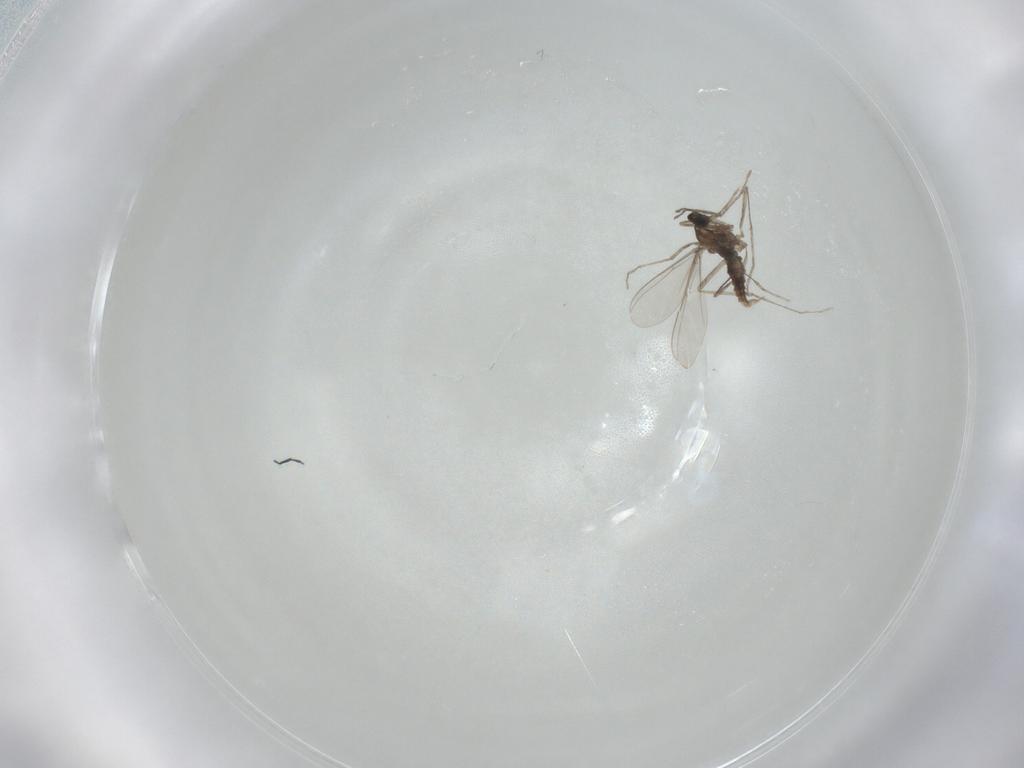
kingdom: Animalia
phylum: Arthropoda
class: Insecta
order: Diptera
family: Cecidomyiidae
